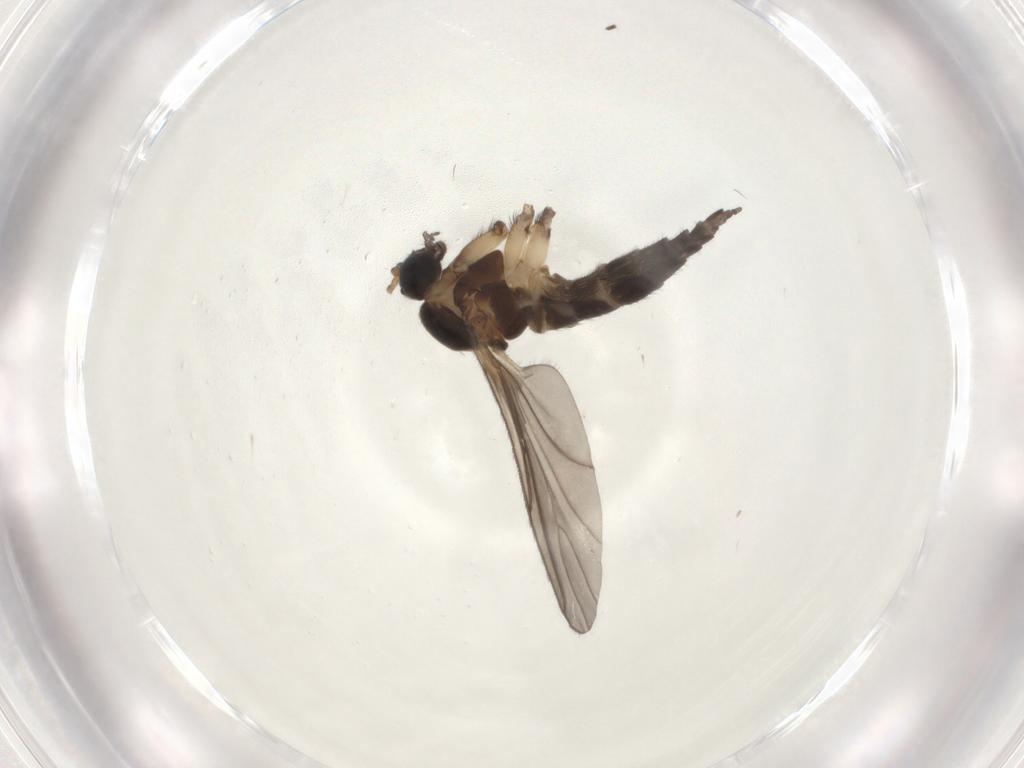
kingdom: Animalia
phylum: Arthropoda
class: Insecta
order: Diptera
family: Sciaridae
